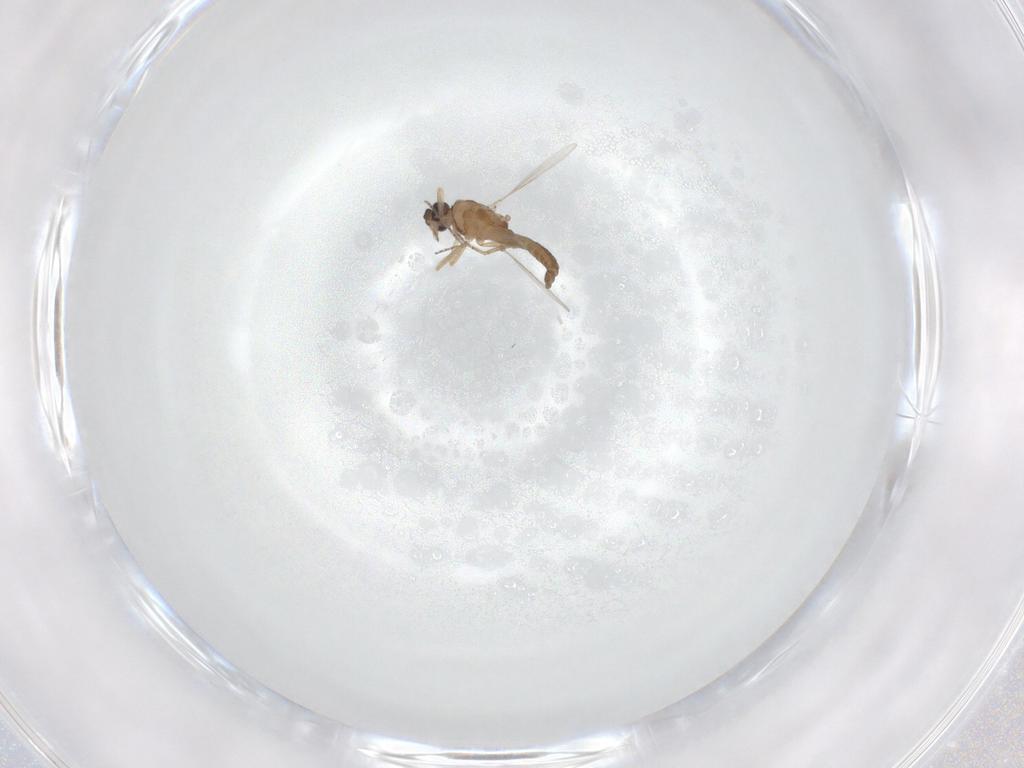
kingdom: Animalia
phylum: Arthropoda
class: Insecta
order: Diptera
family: Ceratopogonidae
